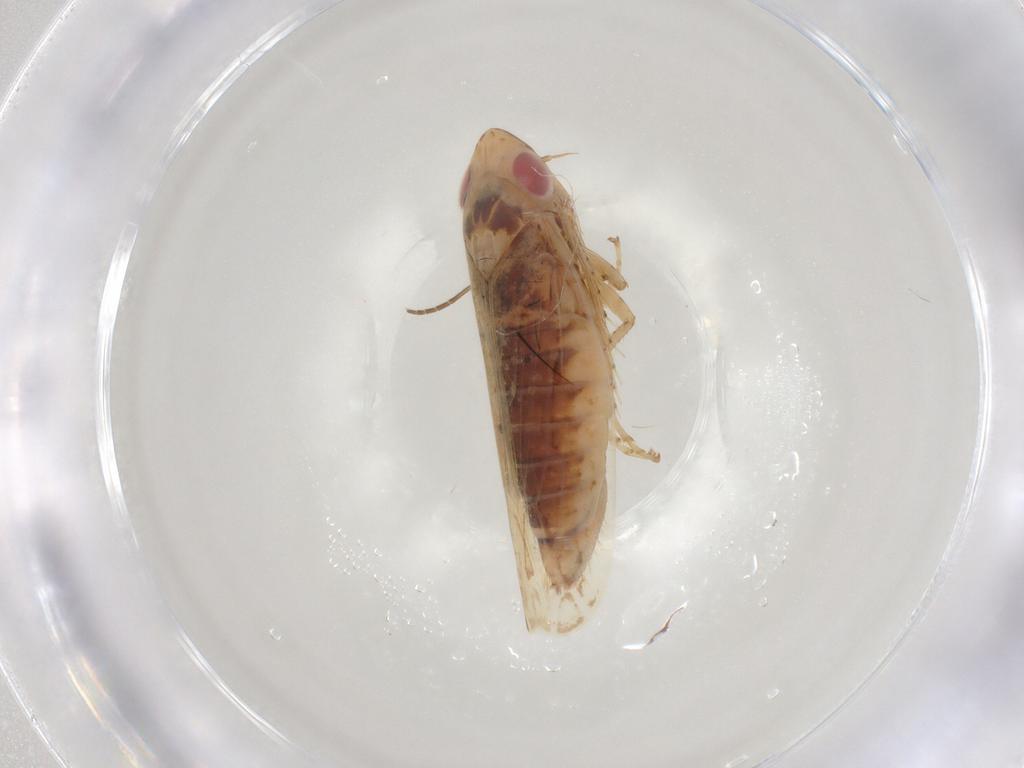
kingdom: Animalia
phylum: Arthropoda
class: Insecta
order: Hemiptera
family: Cicadellidae
